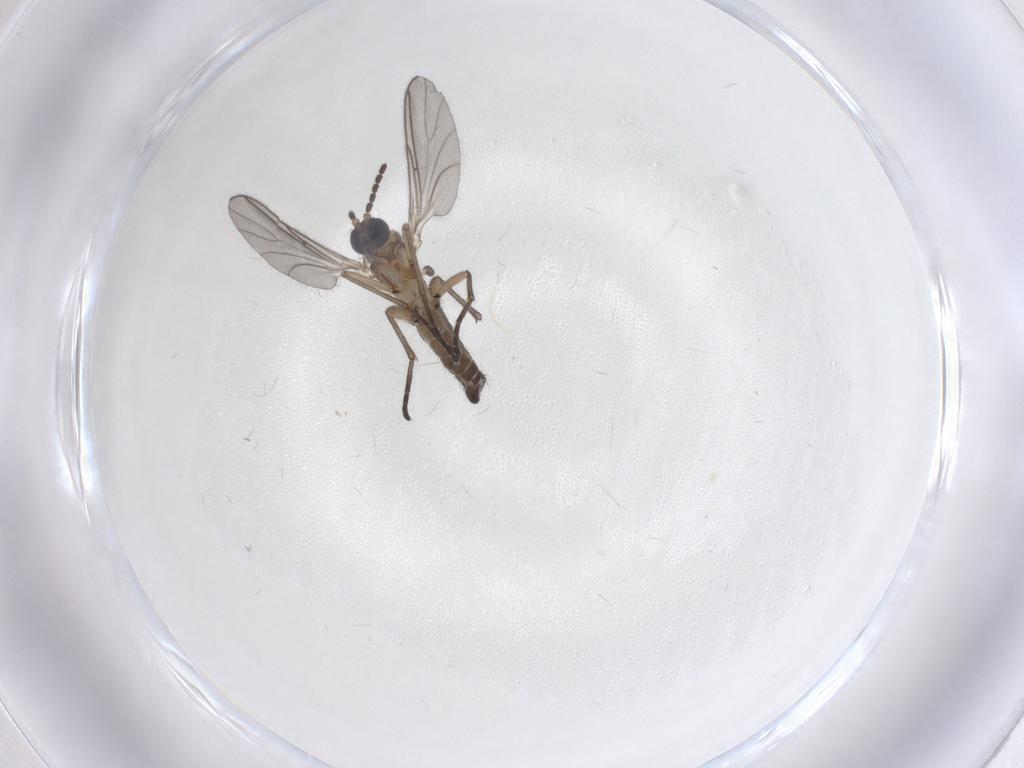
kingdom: Animalia
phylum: Arthropoda
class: Insecta
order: Diptera
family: Sciaridae
